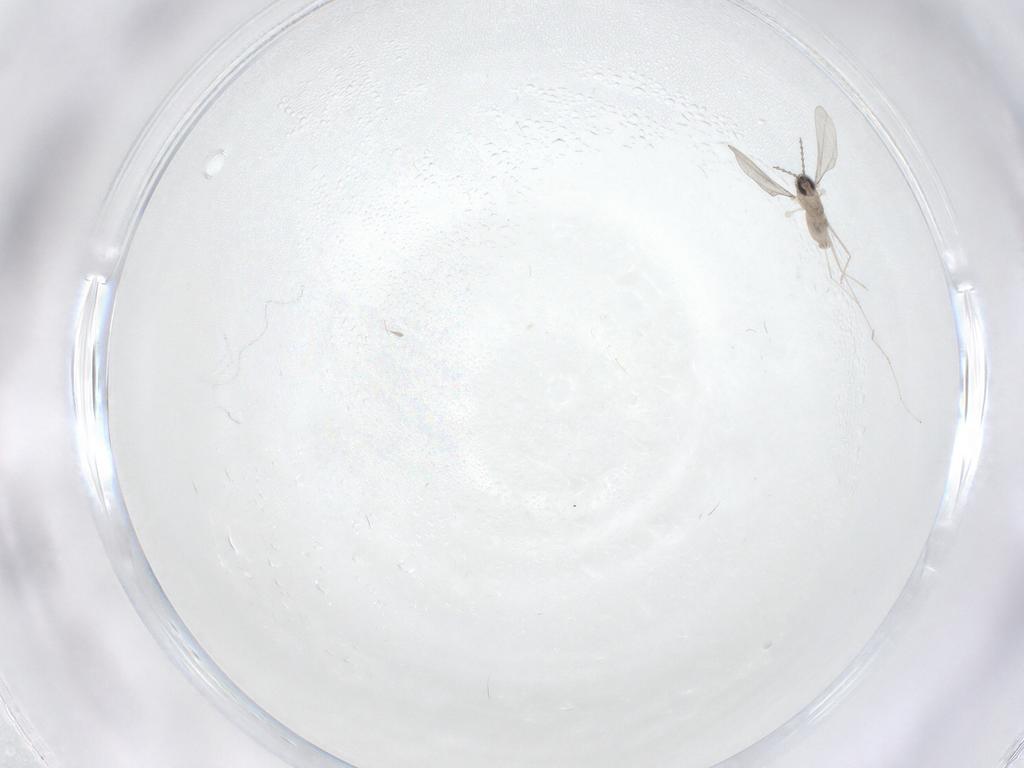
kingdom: Animalia
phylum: Arthropoda
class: Insecta
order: Diptera
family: Cecidomyiidae
